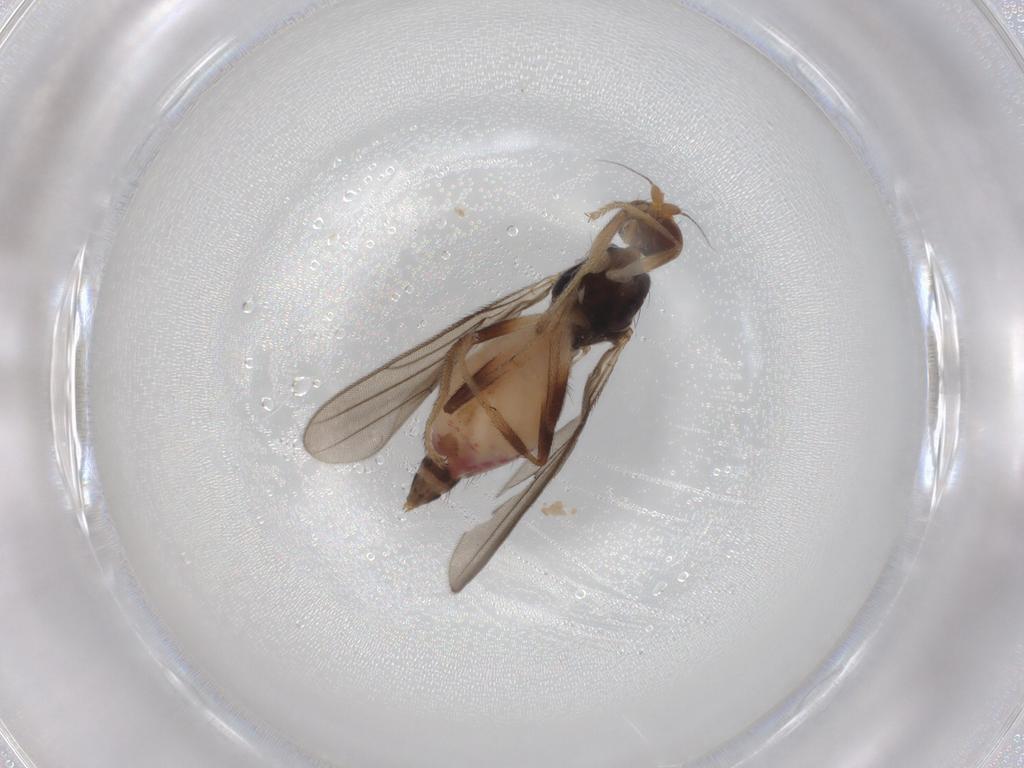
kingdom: Animalia
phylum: Arthropoda
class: Insecta
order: Diptera
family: Chloropidae
